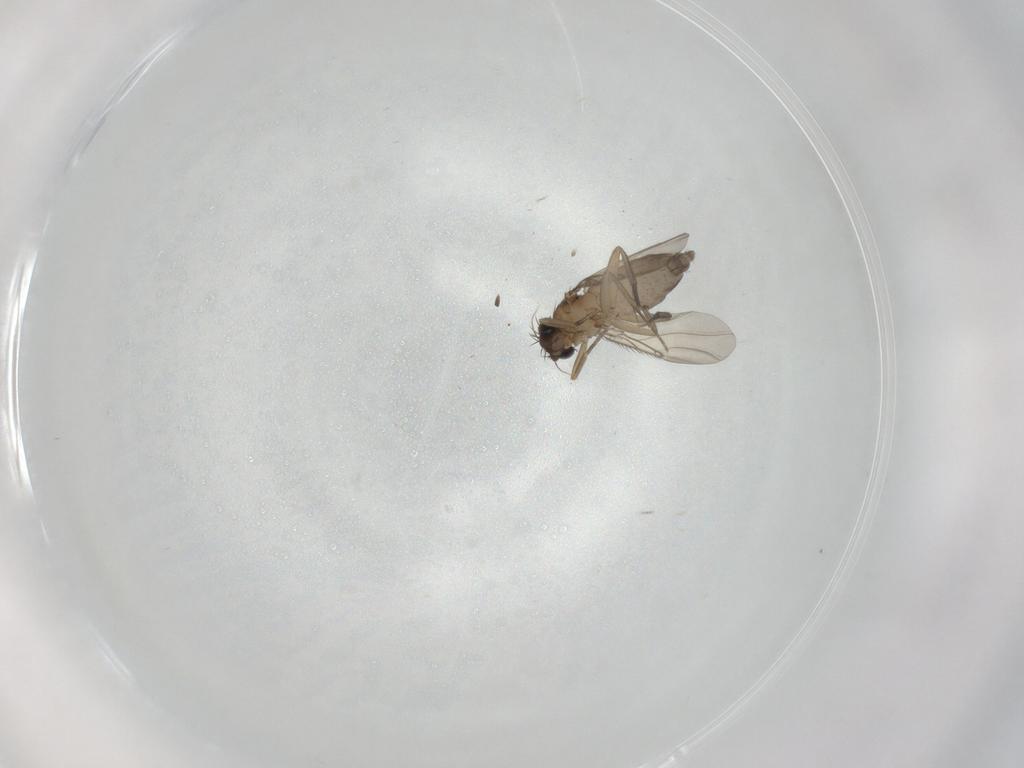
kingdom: Animalia
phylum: Arthropoda
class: Insecta
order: Diptera
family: Phoridae
